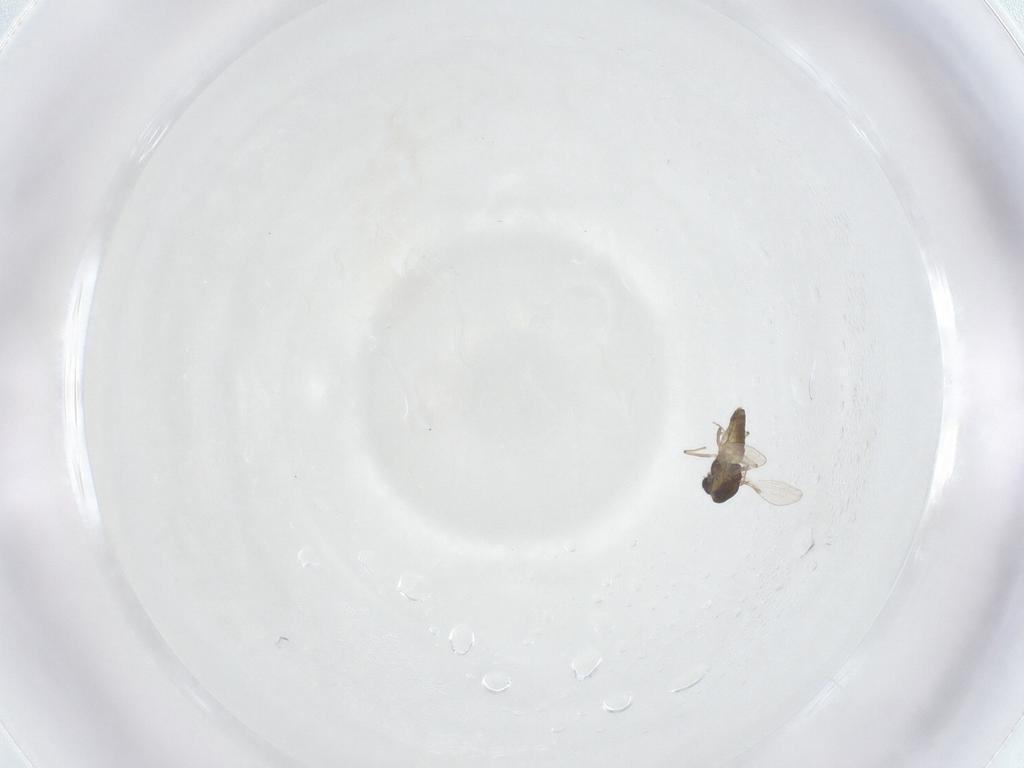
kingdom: Animalia
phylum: Arthropoda
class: Insecta
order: Diptera
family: Chironomidae
